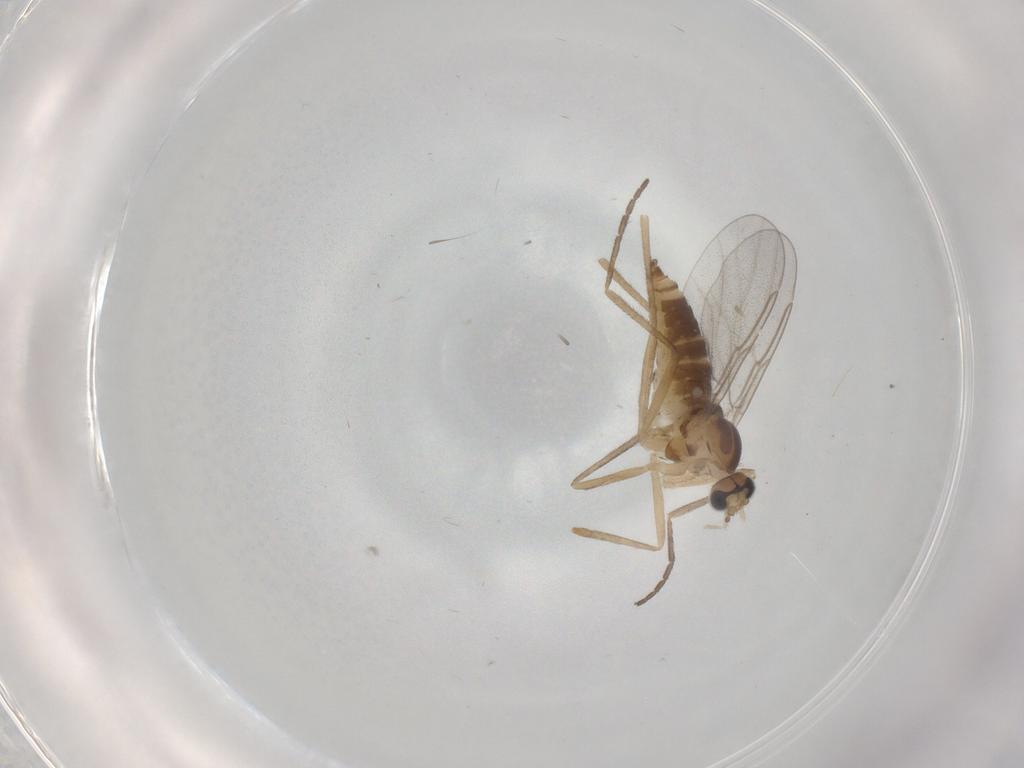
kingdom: Animalia
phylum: Arthropoda
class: Insecta
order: Diptera
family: Cecidomyiidae
